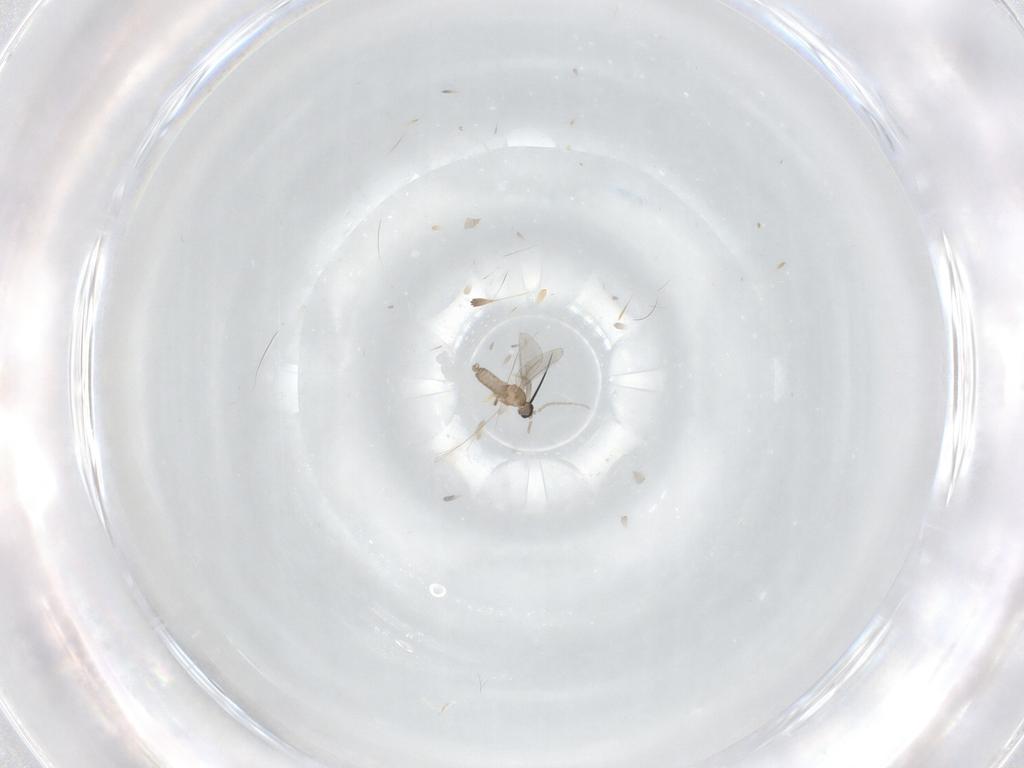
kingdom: Animalia
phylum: Arthropoda
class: Insecta
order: Diptera
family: Cecidomyiidae
